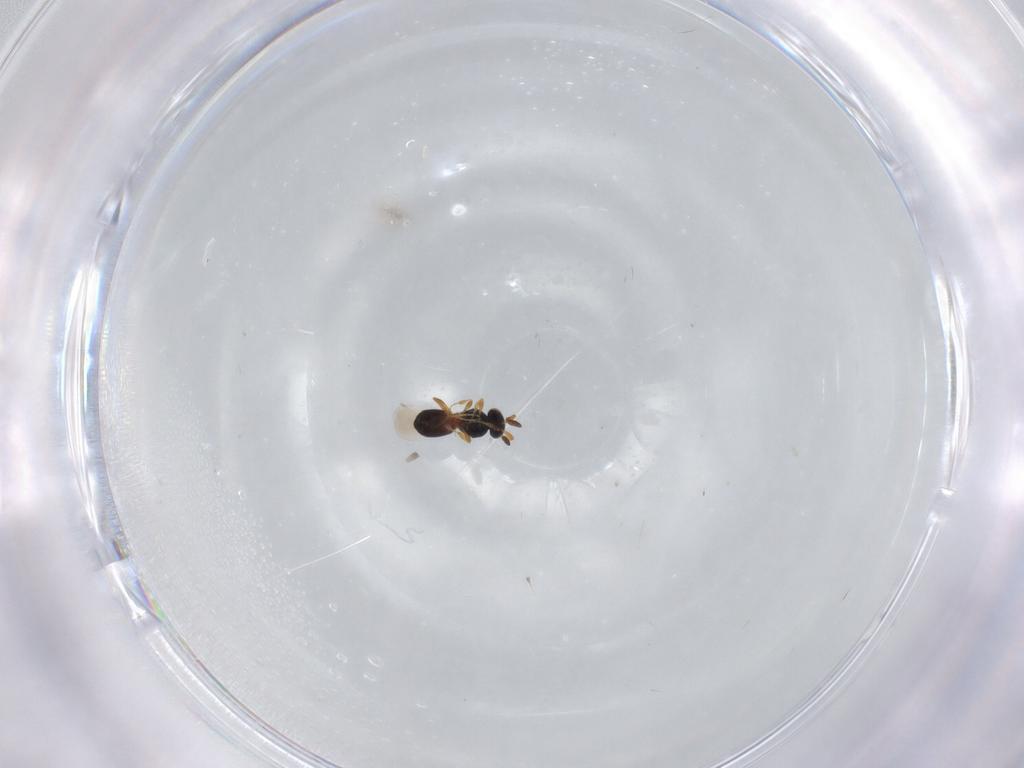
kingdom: Animalia
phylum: Arthropoda
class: Insecta
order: Hymenoptera
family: Platygastridae
